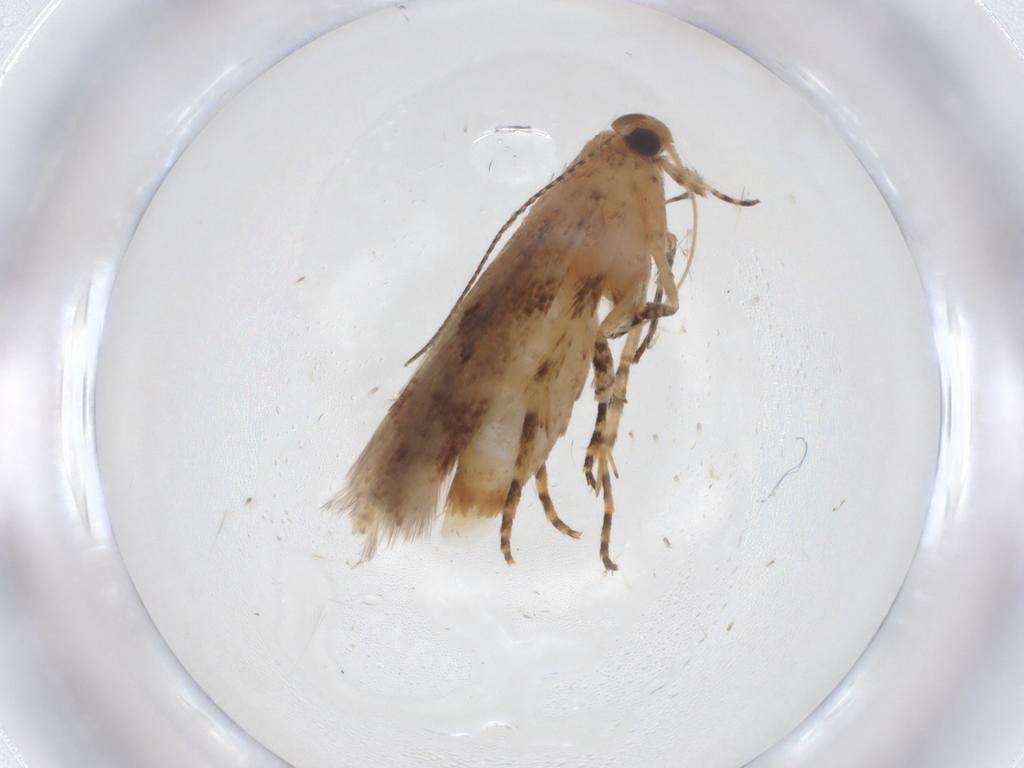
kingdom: Animalia
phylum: Arthropoda
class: Insecta
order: Lepidoptera
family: Gelechiidae
